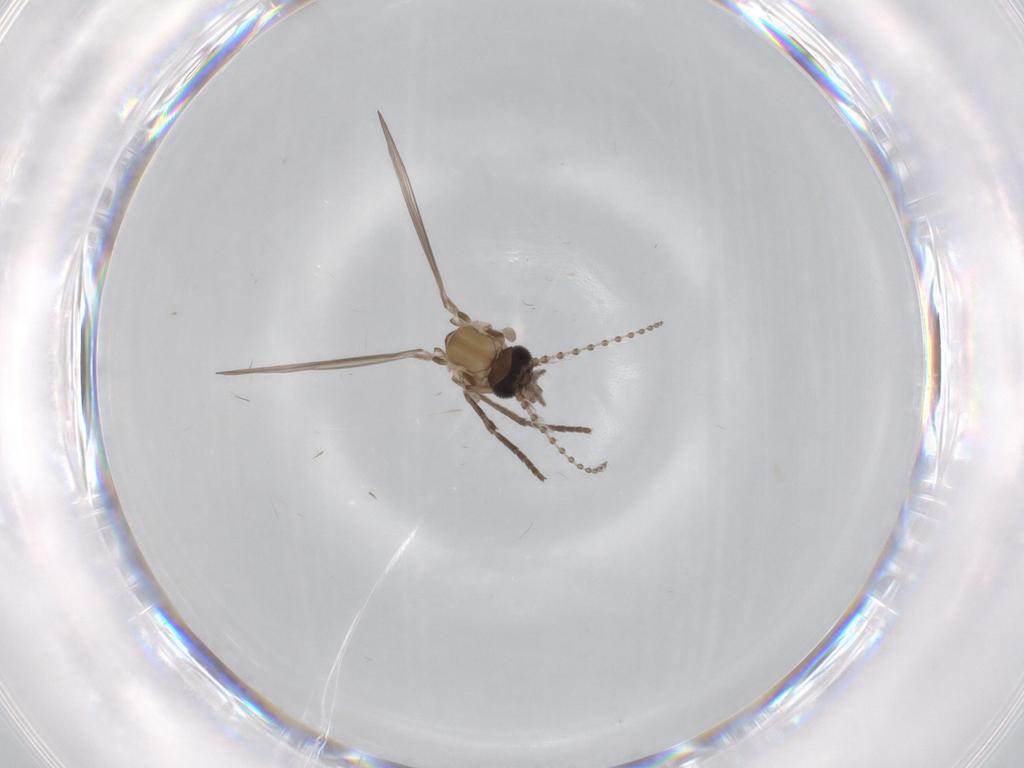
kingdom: Animalia
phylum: Arthropoda
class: Insecta
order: Diptera
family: Psychodidae
